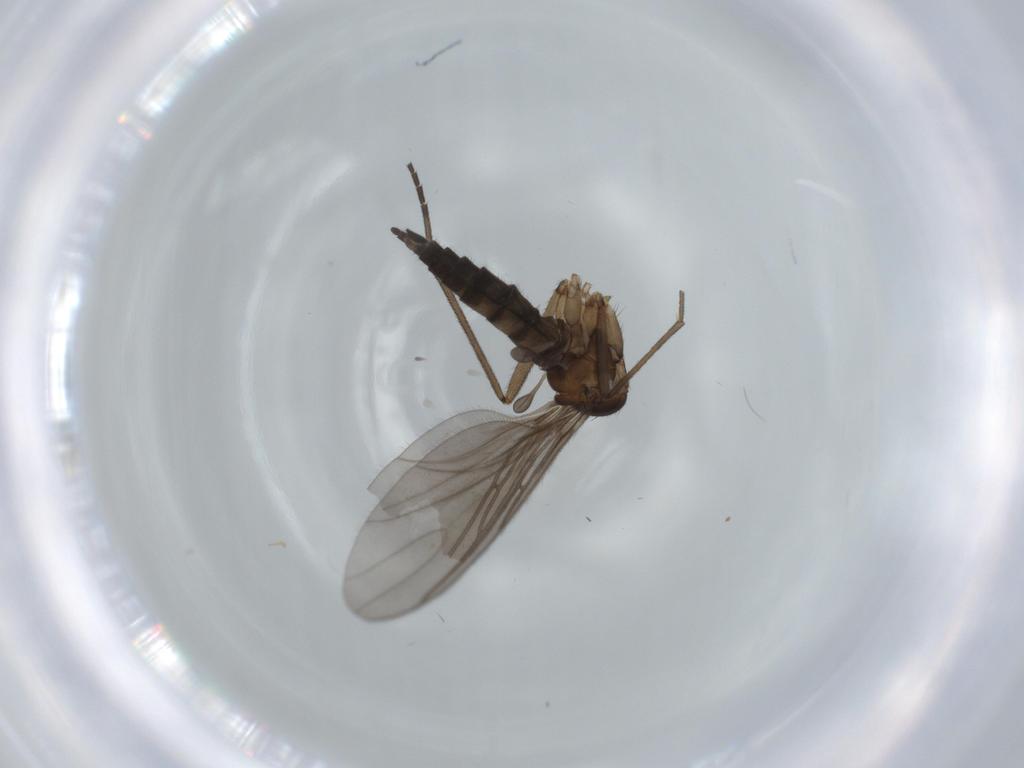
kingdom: Animalia
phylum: Arthropoda
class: Insecta
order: Diptera
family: Sciaridae
